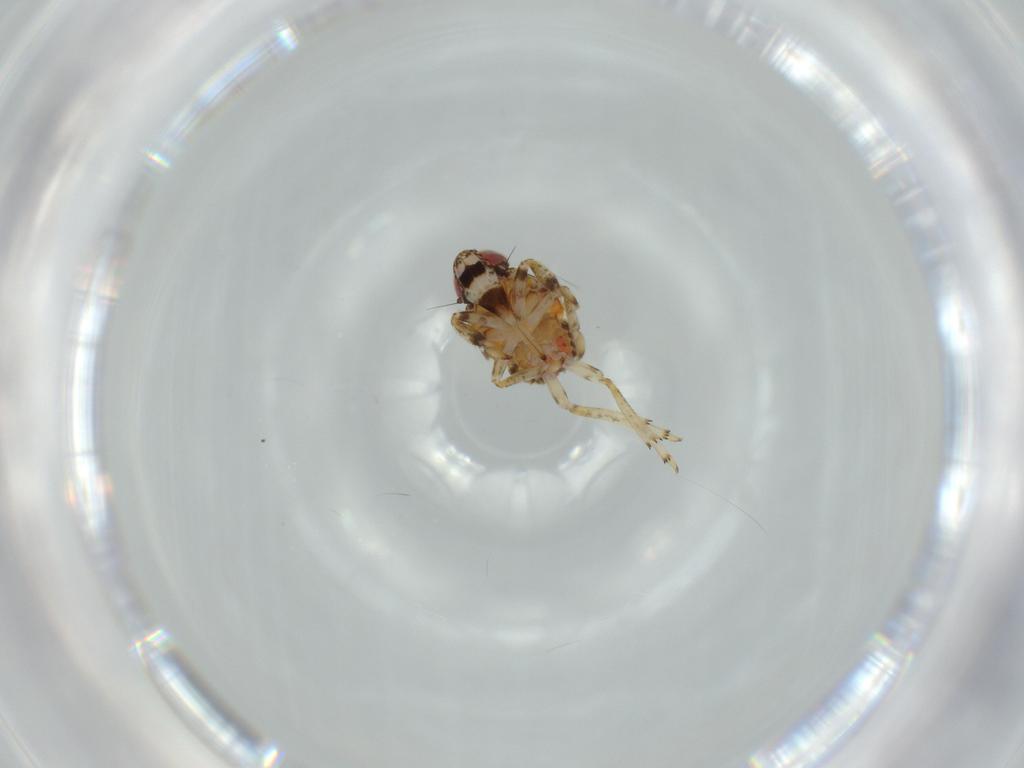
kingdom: Animalia
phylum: Arthropoda
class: Insecta
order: Hemiptera
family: Issidae
